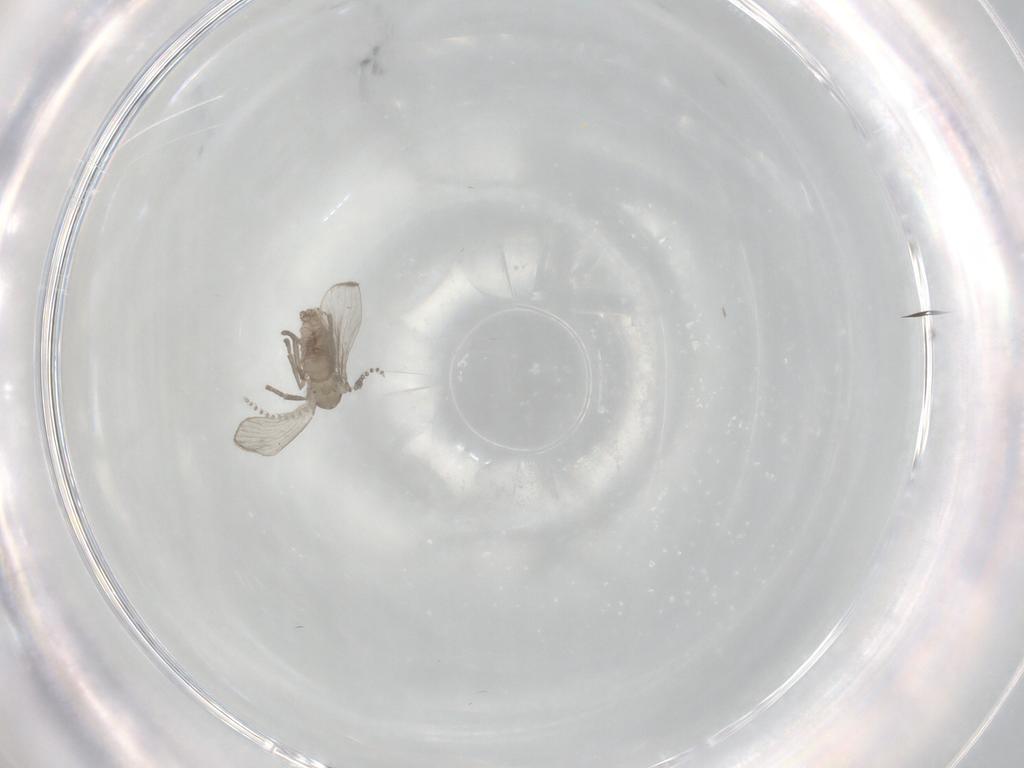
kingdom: Animalia
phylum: Arthropoda
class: Insecta
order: Diptera
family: Psychodidae
